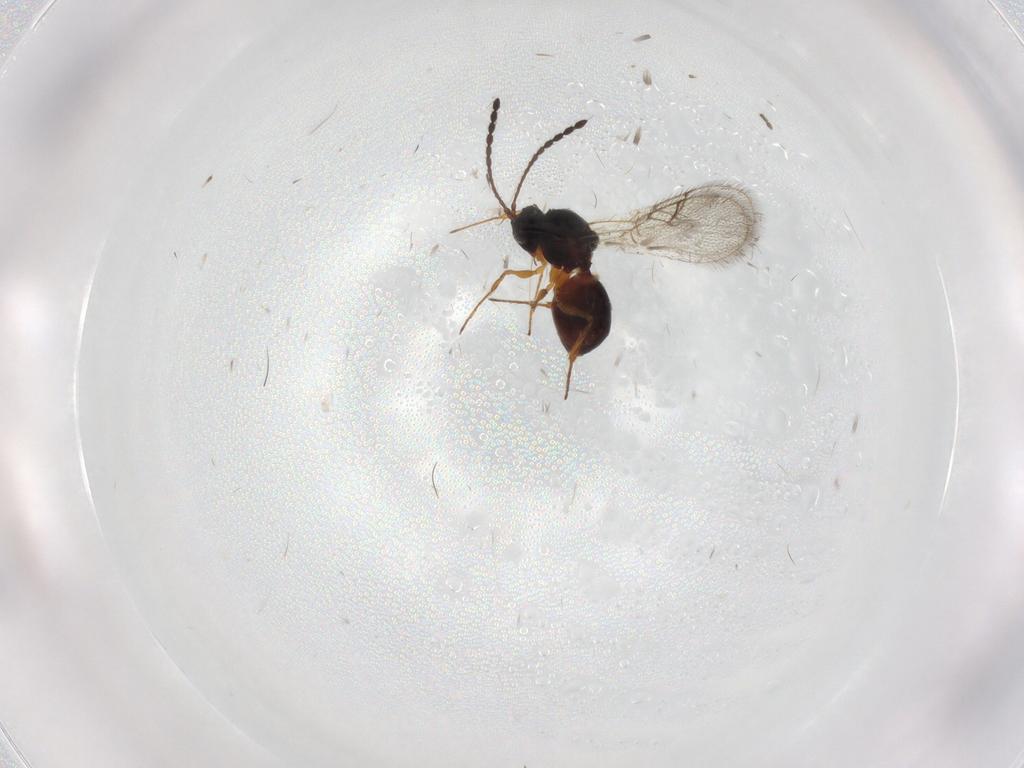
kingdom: Animalia
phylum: Arthropoda
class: Insecta
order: Hymenoptera
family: Figitidae
